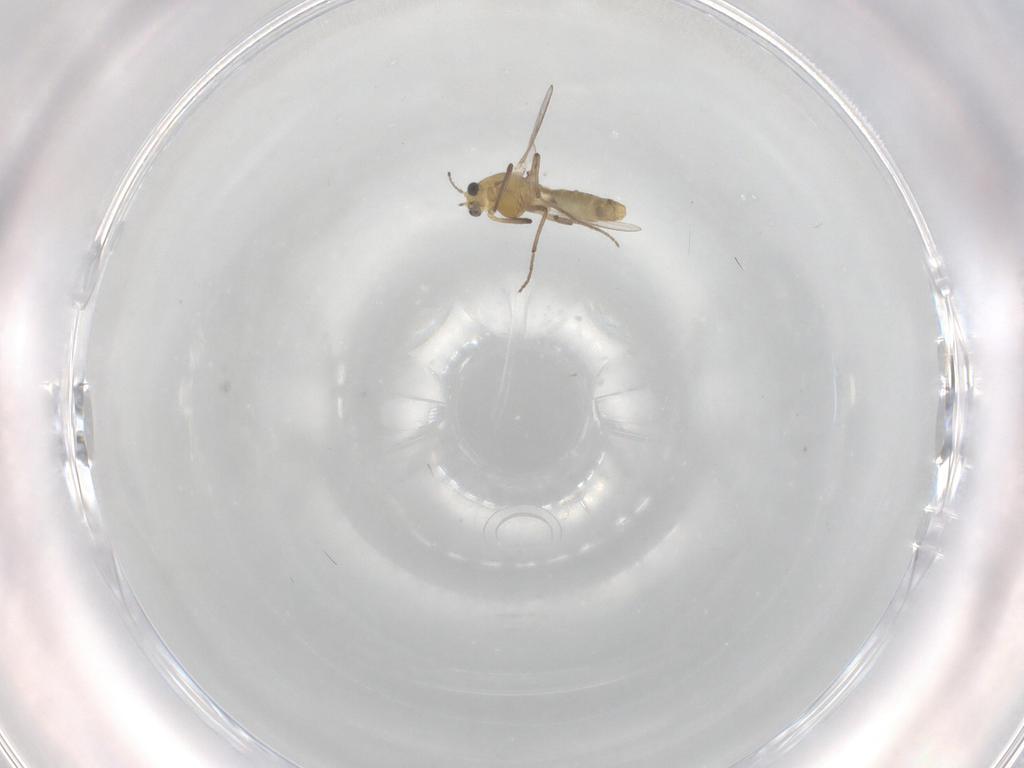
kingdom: Animalia
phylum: Arthropoda
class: Insecta
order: Diptera
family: Chironomidae
